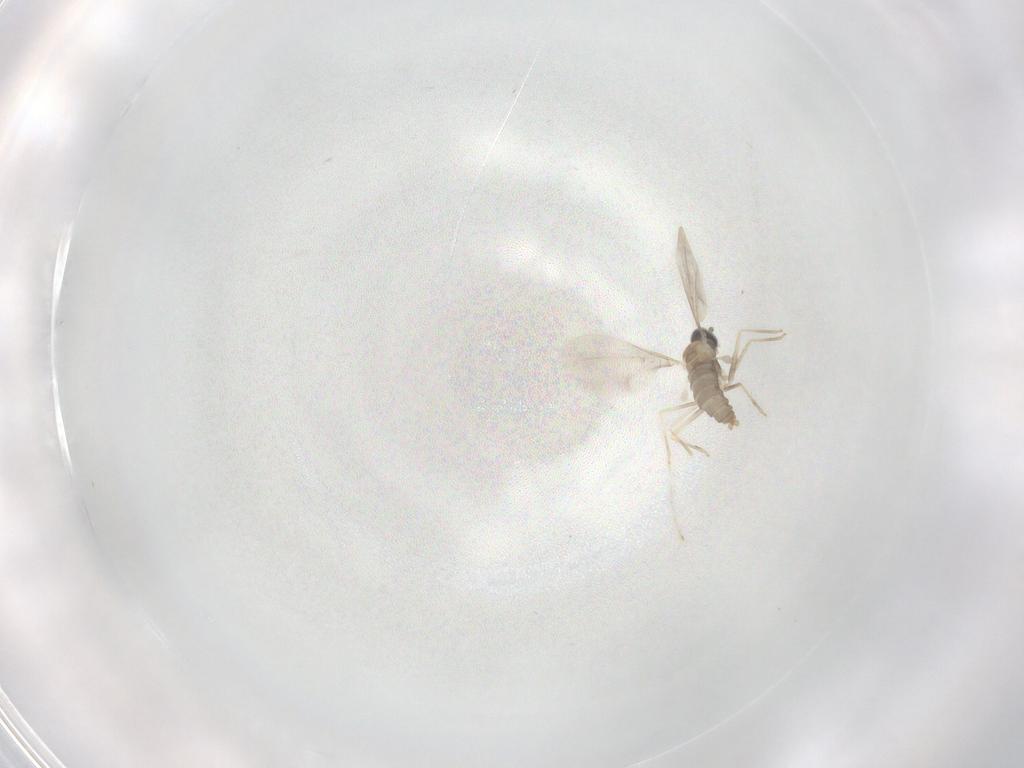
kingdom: Animalia
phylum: Arthropoda
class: Insecta
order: Diptera
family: Cecidomyiidae
